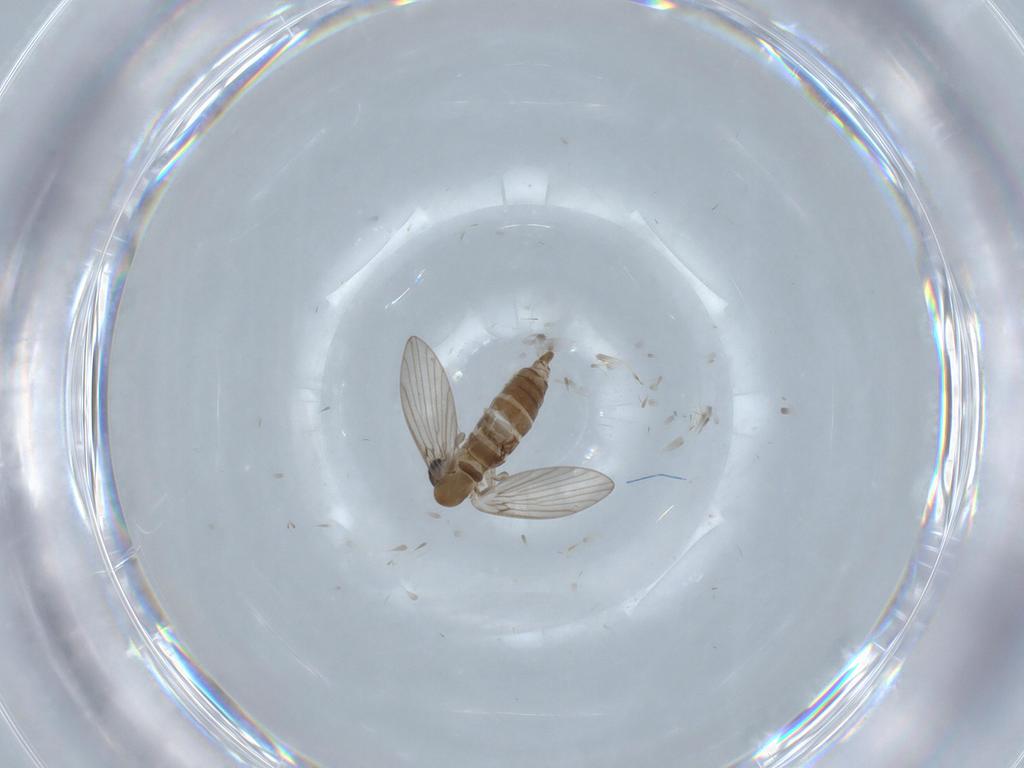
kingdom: Animalia
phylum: Arthropoda
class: Insecta
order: Diptera
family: Psychodidae
